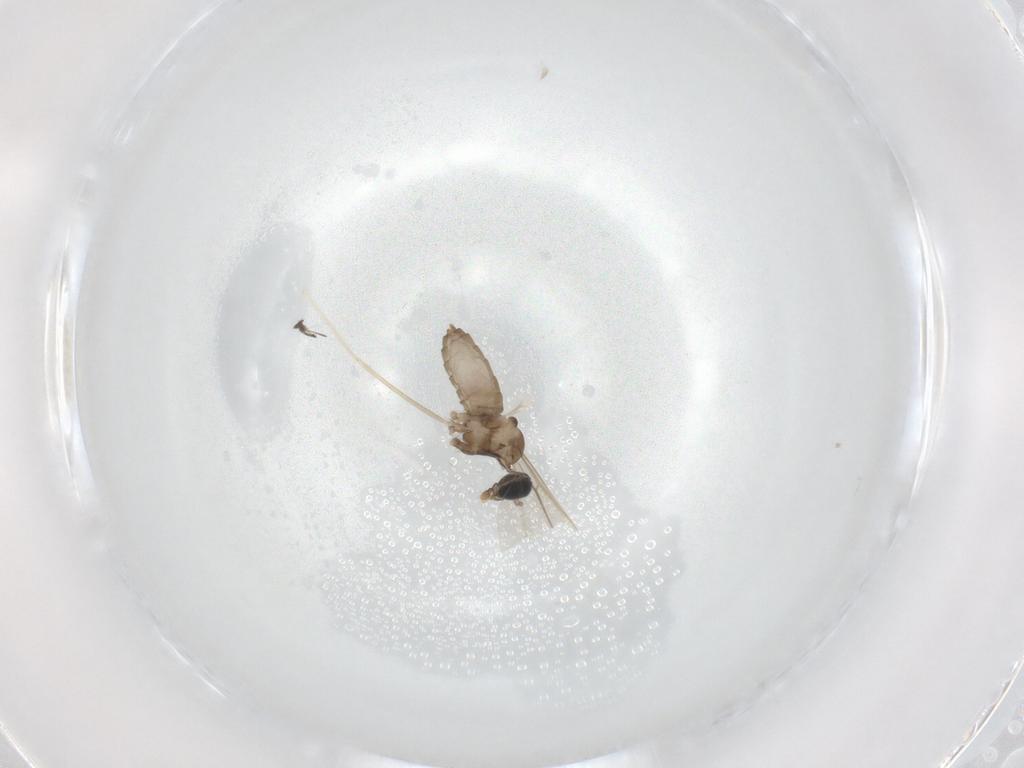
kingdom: Animalia
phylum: Arthropoda
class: Insecta
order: Diptera
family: Cecidomyiidae
